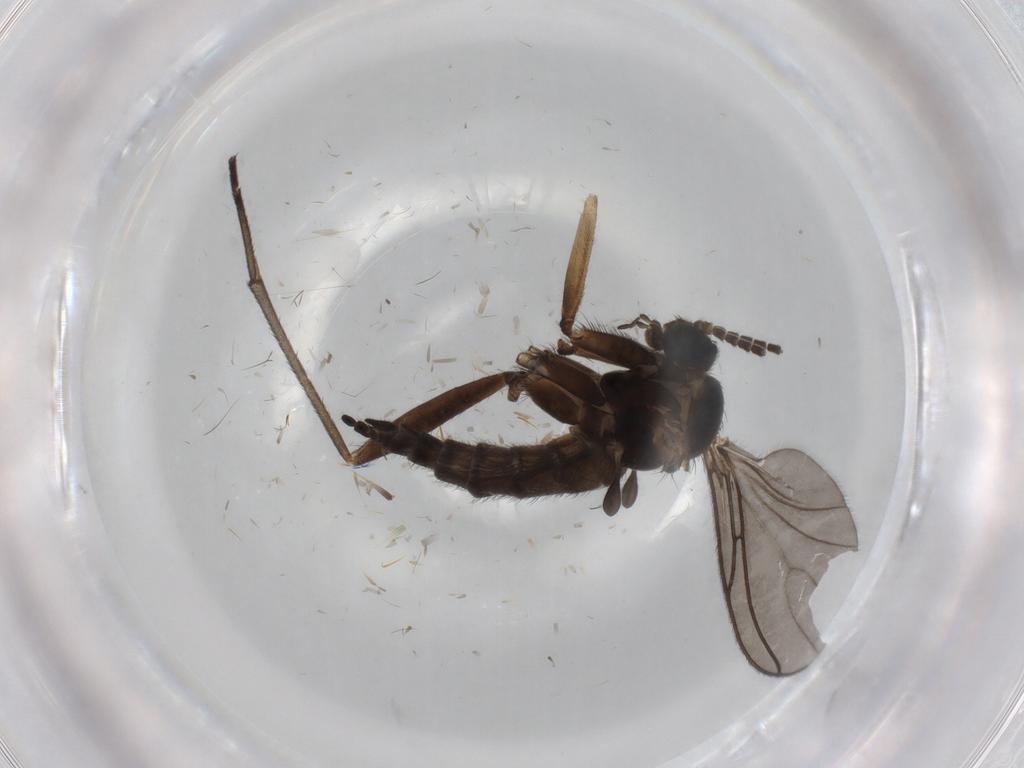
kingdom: Animalia
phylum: Arthropoda
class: Insecta
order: Diptera
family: Sciaridae
